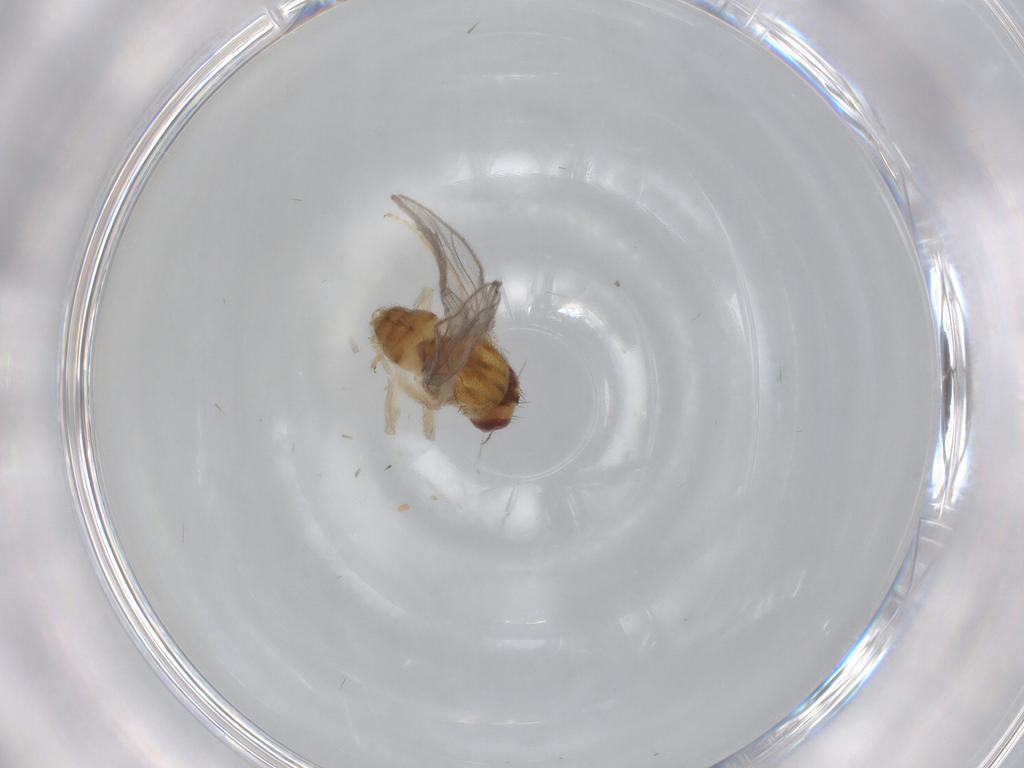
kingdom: Animalia
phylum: Arthropoda
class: Insecta
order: Diptera
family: Chloropidae
